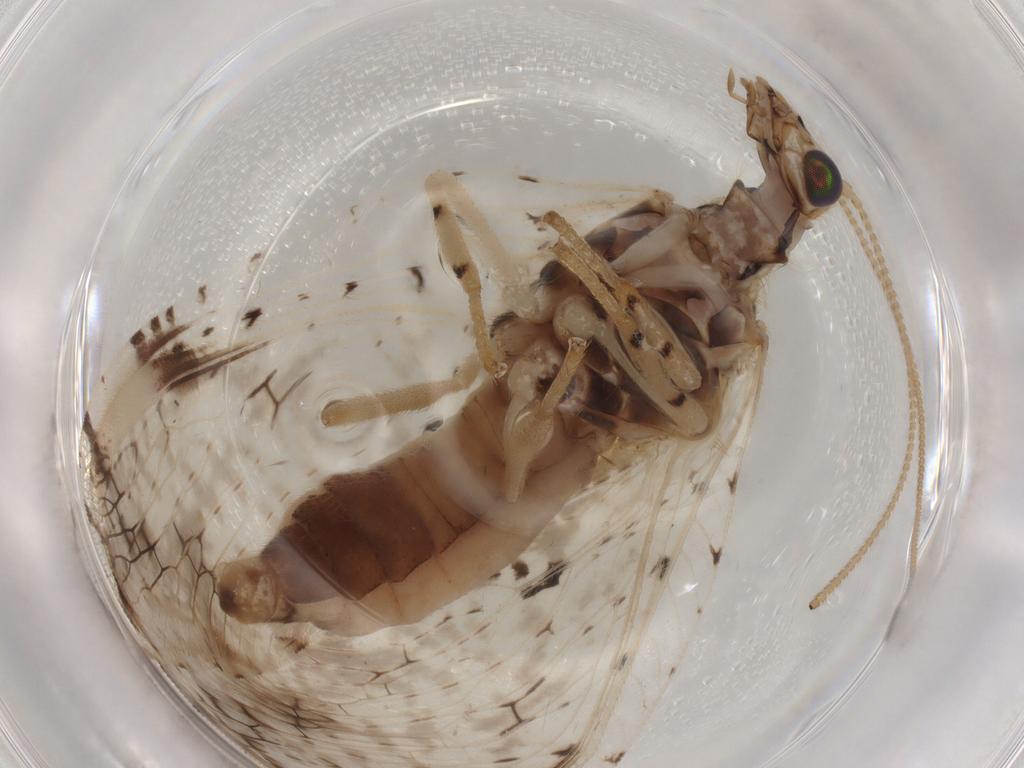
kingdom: Animalia
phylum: Arthropoda
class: Insecta
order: Neuroptera
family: Hemerobiidae
